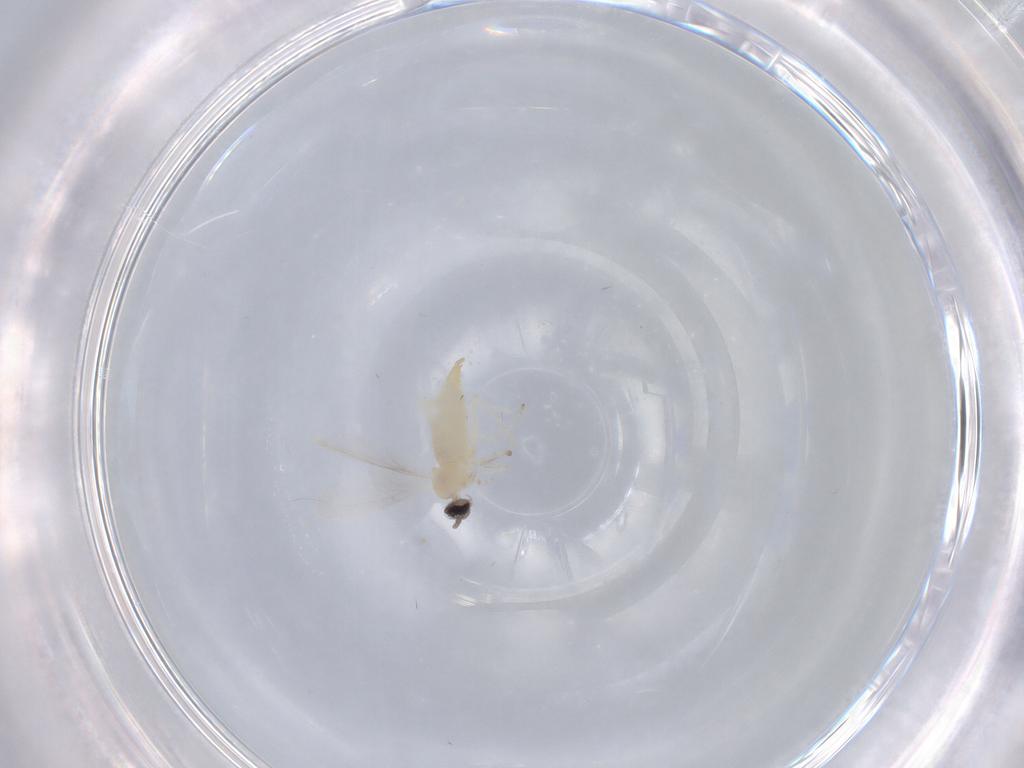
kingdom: Animalia
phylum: Arthropoda
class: Insecta
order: Diptera
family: Cecidomyiidae
